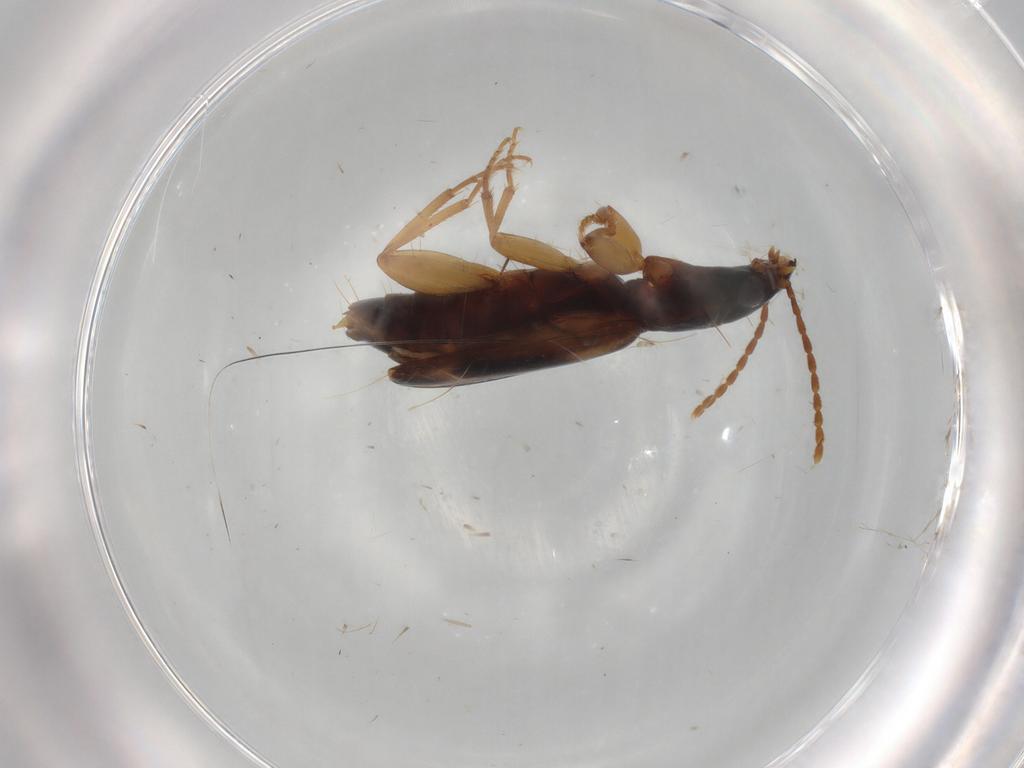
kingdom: Animalia
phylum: Arthropoda
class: Insecta
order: Coleoptera
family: Carabidae
